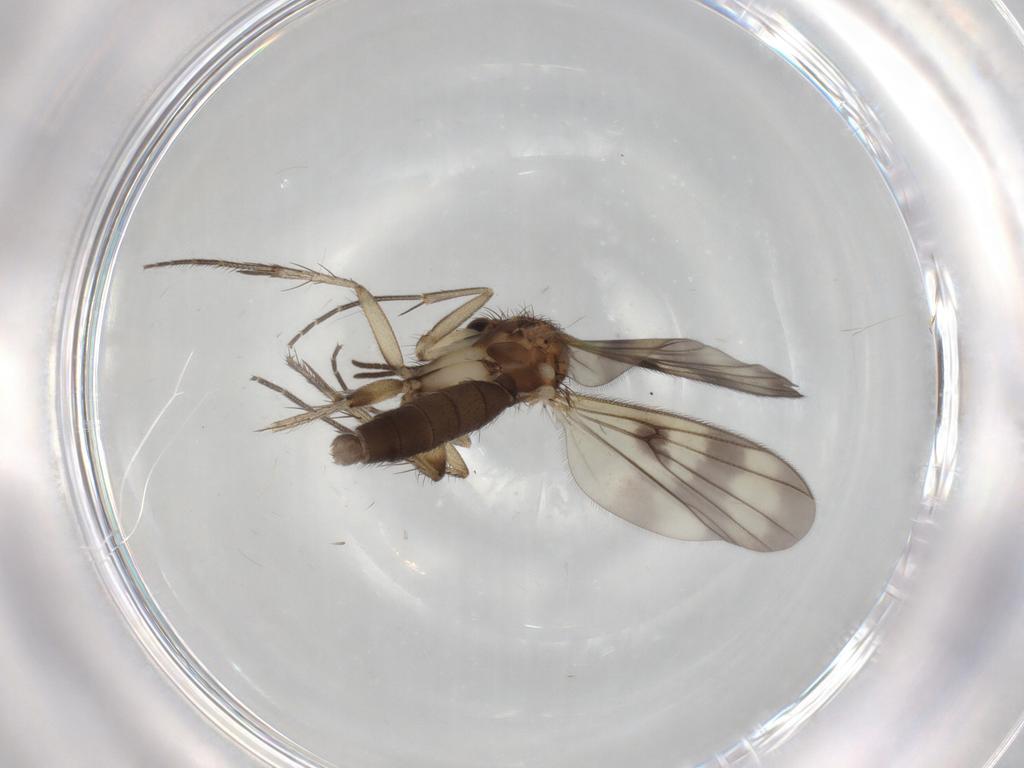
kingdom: Animalia
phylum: Arthropoda
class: Insecta
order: Diptera
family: Mycetophilidae
